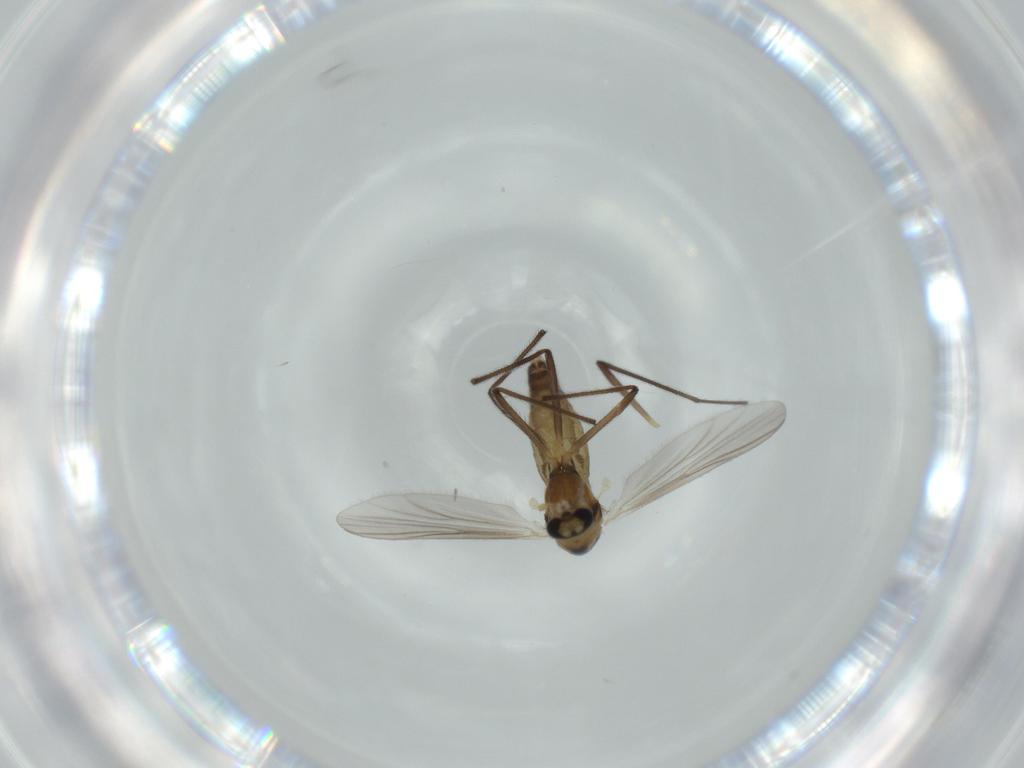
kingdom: Animalia
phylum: Arthropoda
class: Insecta
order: Diptera
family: Chironomidae
